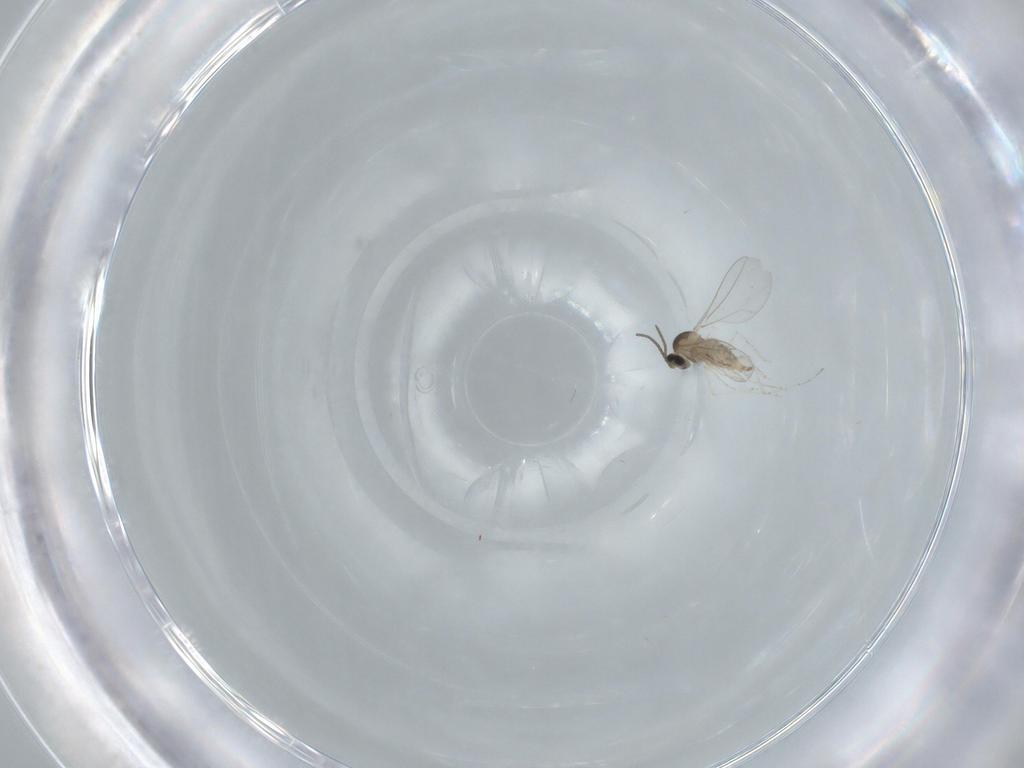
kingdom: Animalia
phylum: Arthropoda
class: Insecta
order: Diptera
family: Cecidomyiidae
